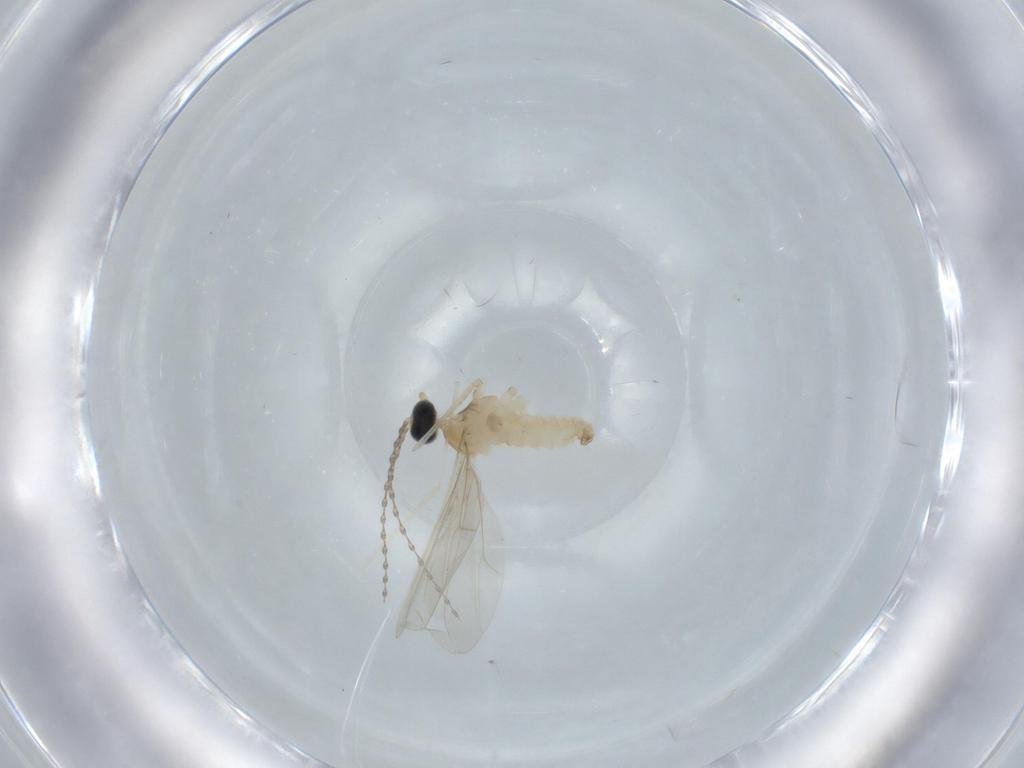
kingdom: Animalia
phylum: Arthropoda
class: Insecta
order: Diptera
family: Cecidomyiidae
